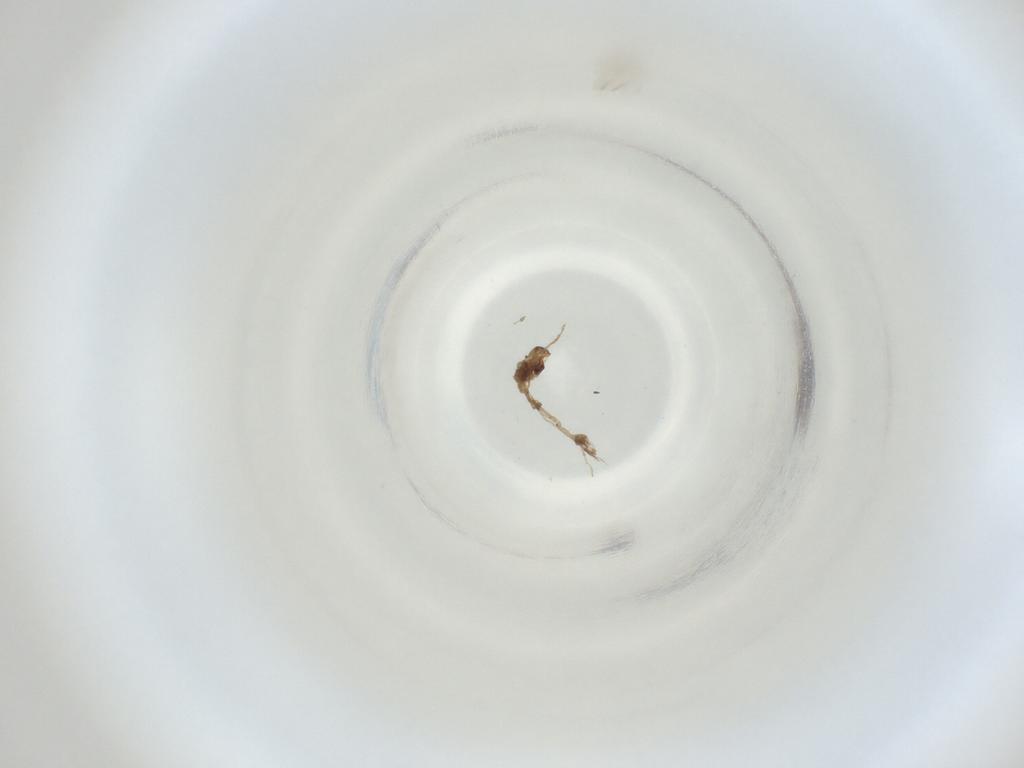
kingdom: Animalia
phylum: Arthropoda
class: Insecta
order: Diptera
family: Cecidomyiidae
